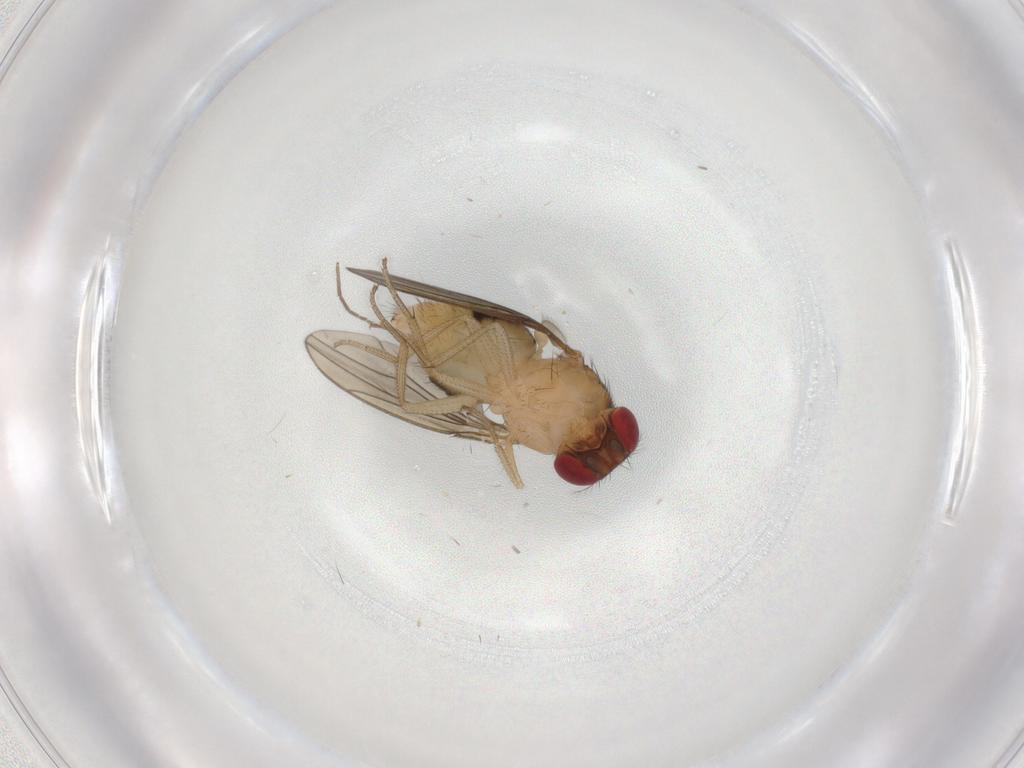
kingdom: Animalia
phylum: Arthropoda
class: Insecta
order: Diptera
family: Drosophilidae
